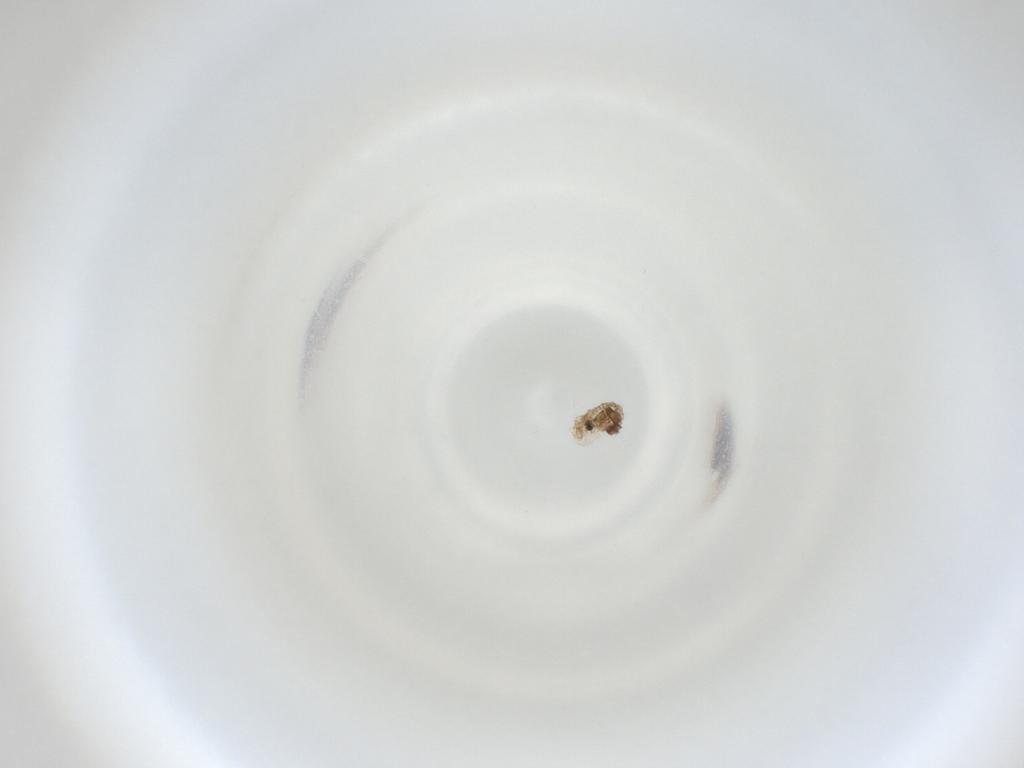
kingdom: Animalia
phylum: Arthropoda
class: Insecta
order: Diptera
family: Cecidomyiidae
